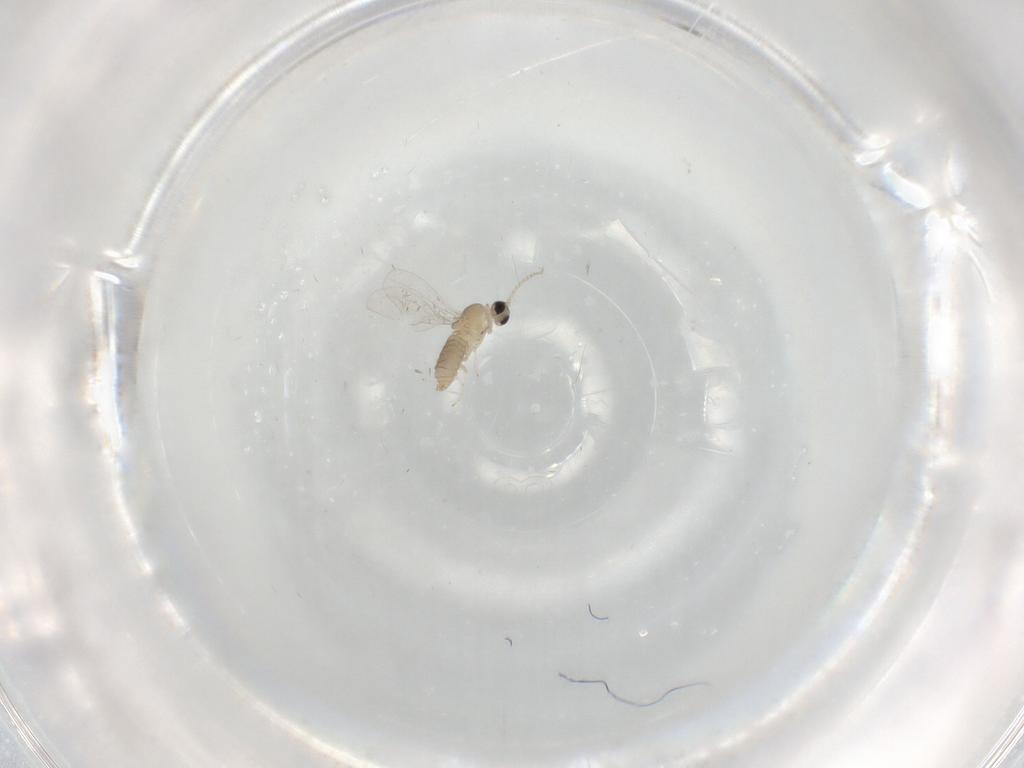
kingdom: Animalia
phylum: Arthropoda
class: Insecta
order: Diptera
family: Cecidomyiidae
